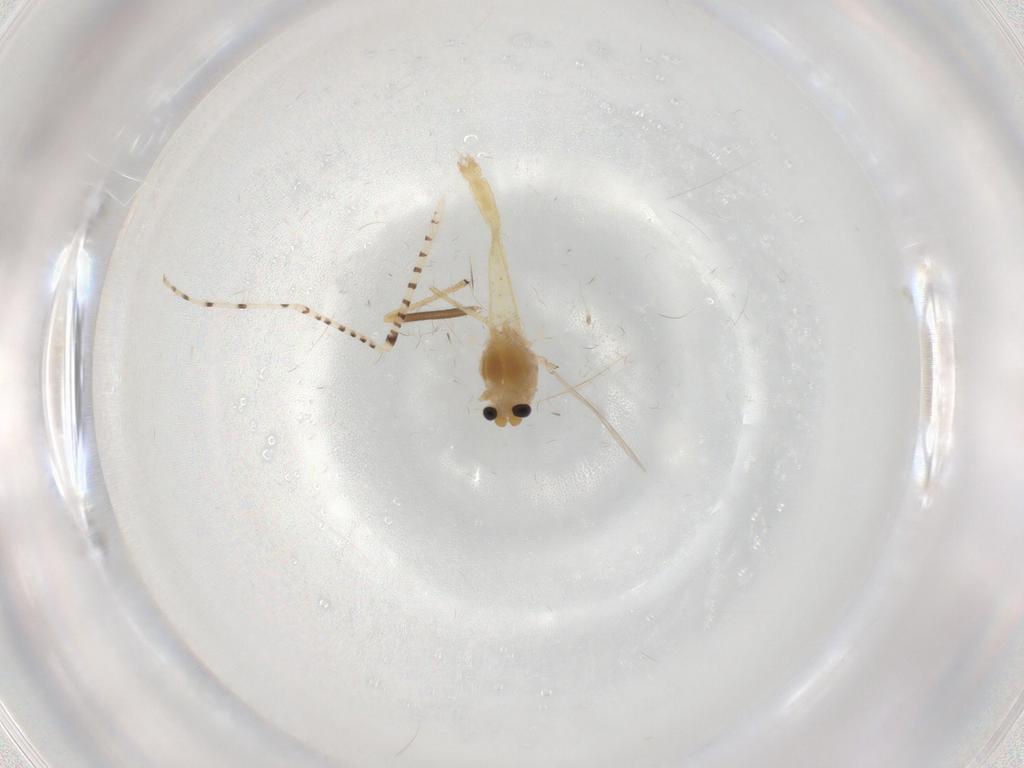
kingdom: Animalia
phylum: Arthropoda
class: Insecta
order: Diptera
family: Chironomidae
